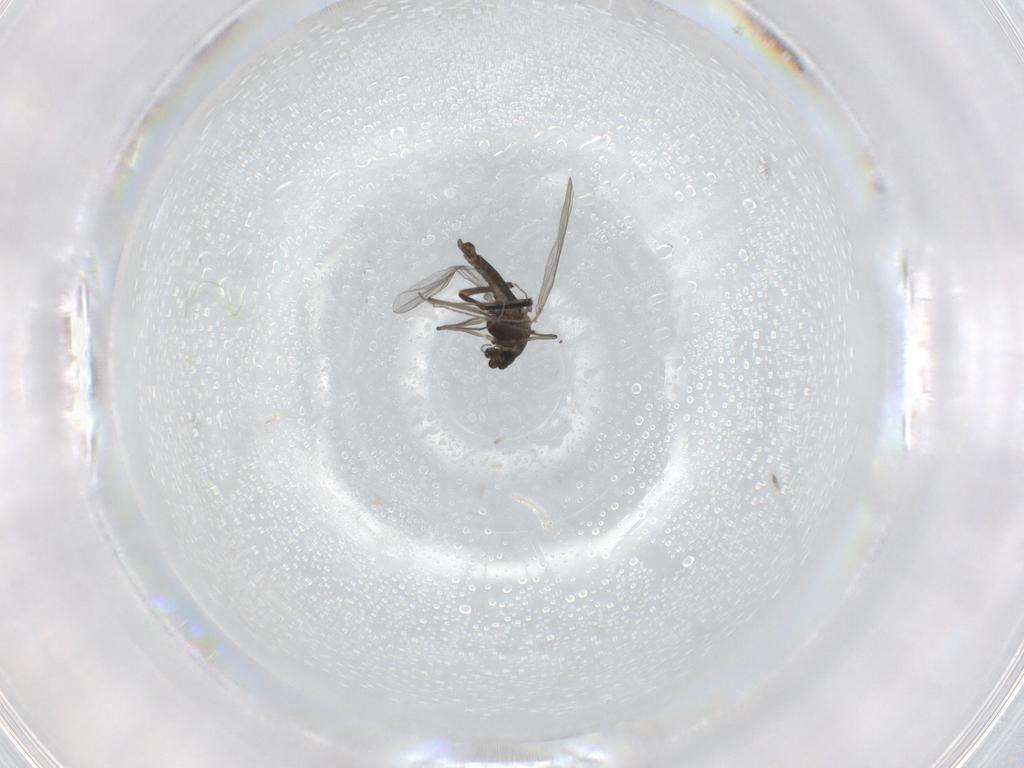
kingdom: Animalia
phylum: Arthropoda
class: Insecta
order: Diptera
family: Chironomidae
